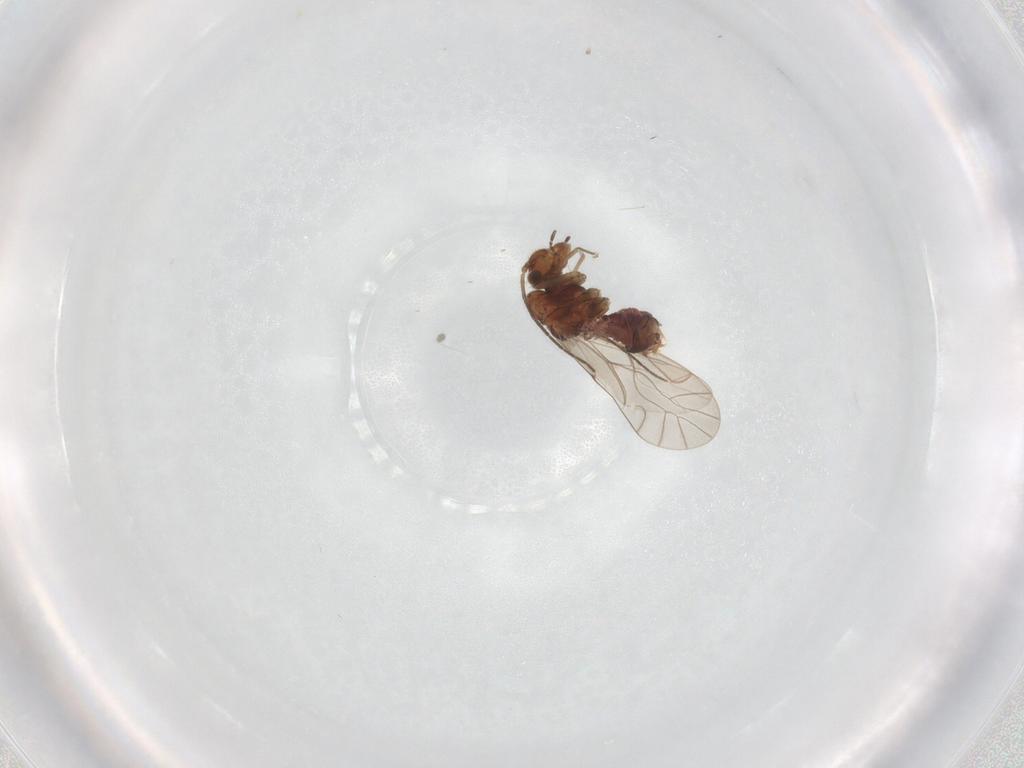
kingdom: Animalia
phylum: Arthropoda
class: Insecta
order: Psocodea
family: Lachesillidae
